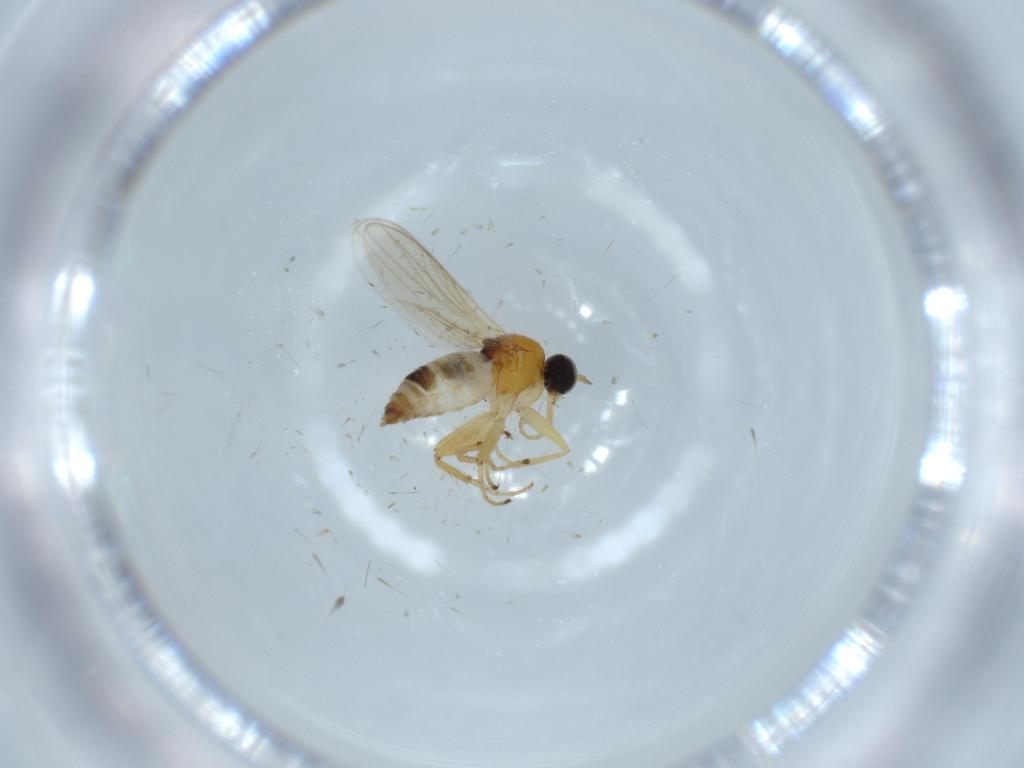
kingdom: Animalia
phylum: Arthropoda
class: Insecta
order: Diptera
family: Hybotidae
